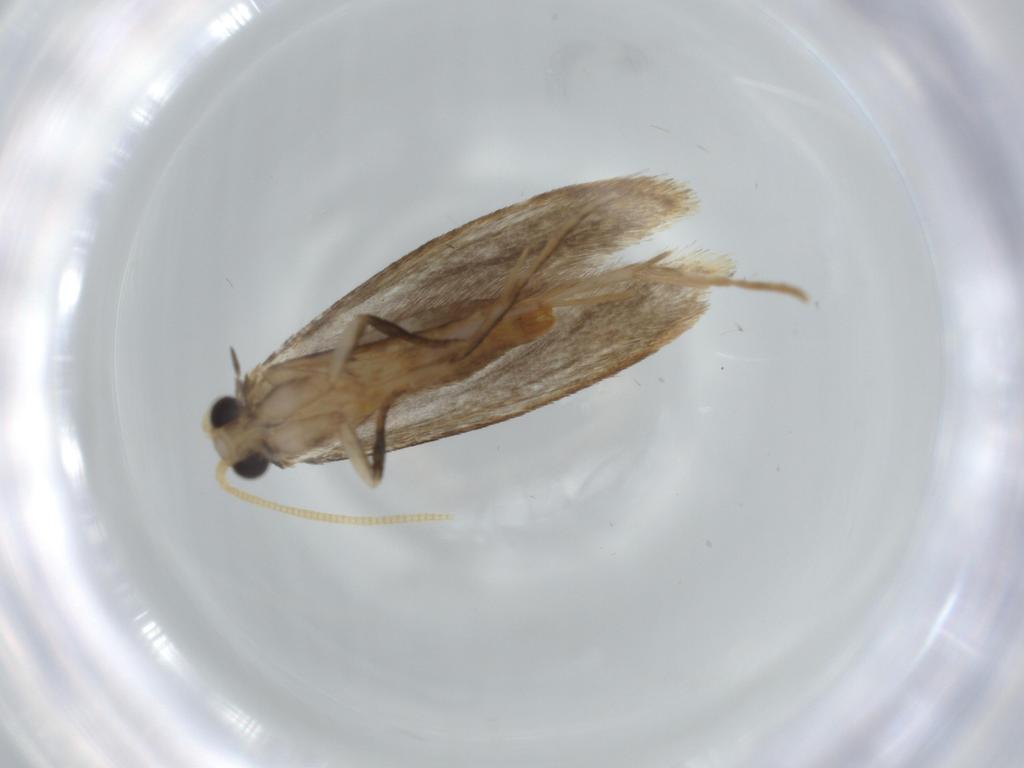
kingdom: Animalia
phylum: Arthropoda
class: Insecta
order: Lepidoptera
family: Tineidae
